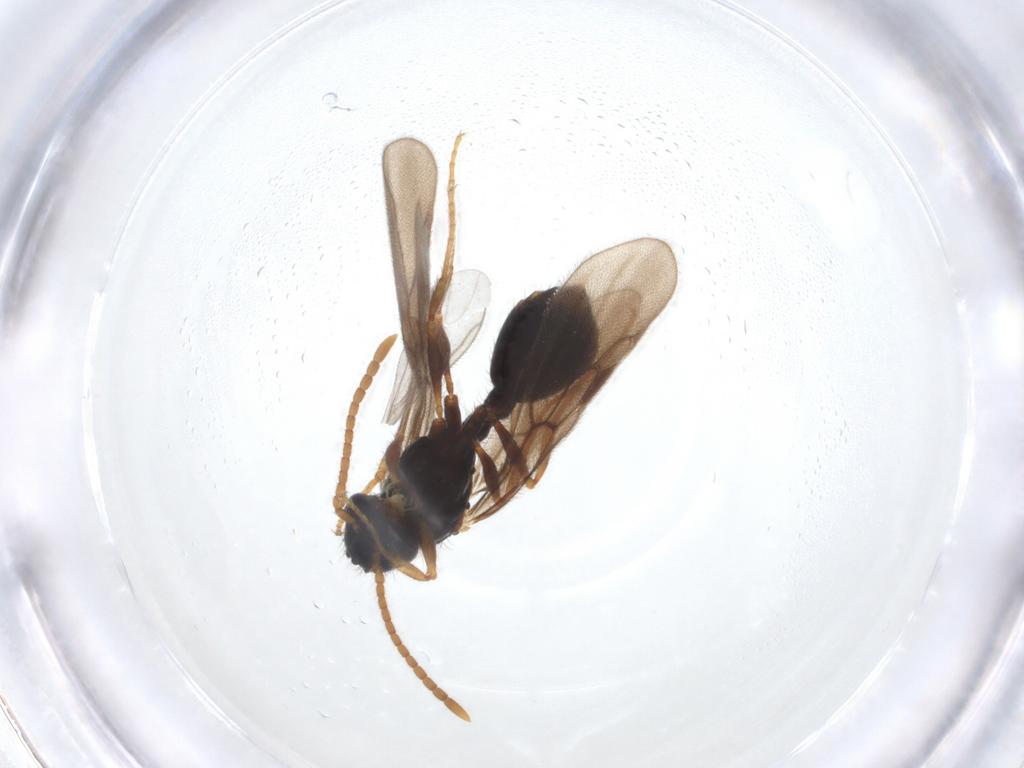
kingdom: Animalia
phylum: Arthropoda
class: Insecta
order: Hymenoptera
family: Formicidae
